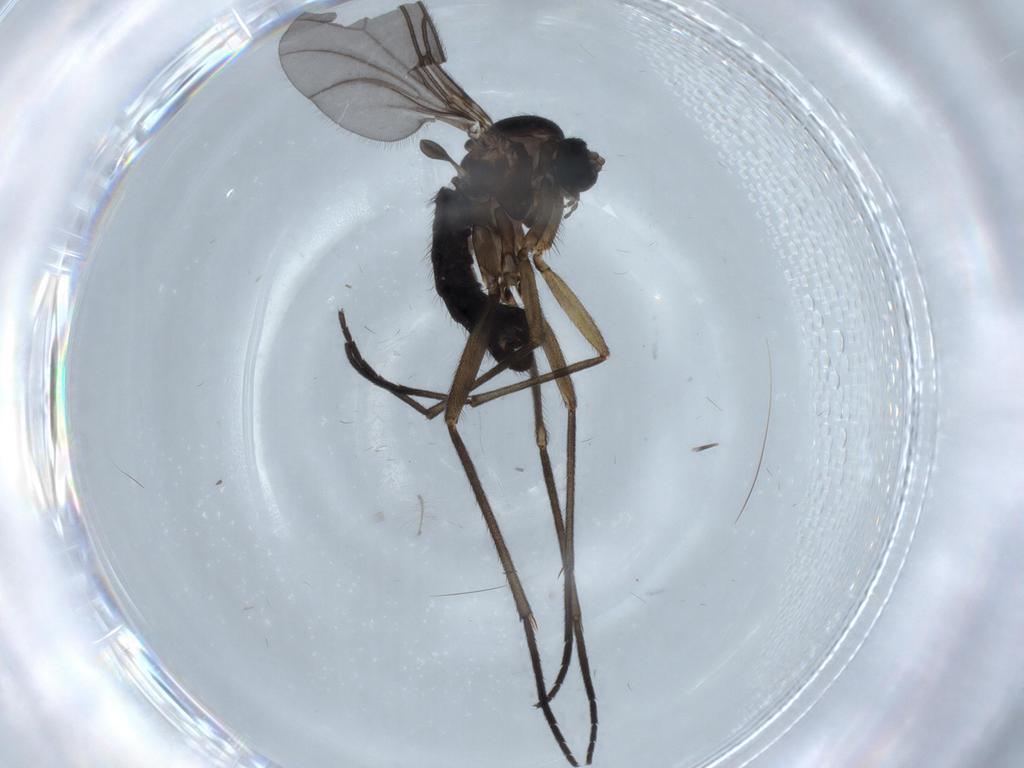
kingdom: Animalia
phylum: Arthropoda
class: Insecta
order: Diptera
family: Sciaridae
